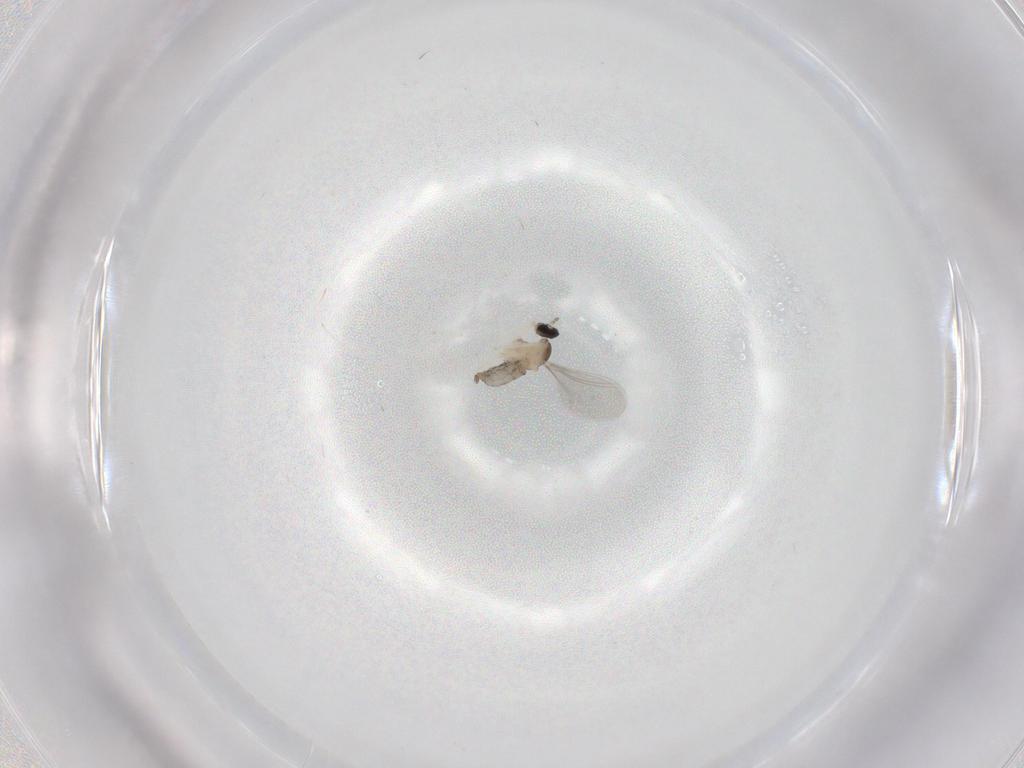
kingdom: Animalia
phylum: Arthropoda
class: Insecta
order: Diptera
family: Cecidomyiidae
